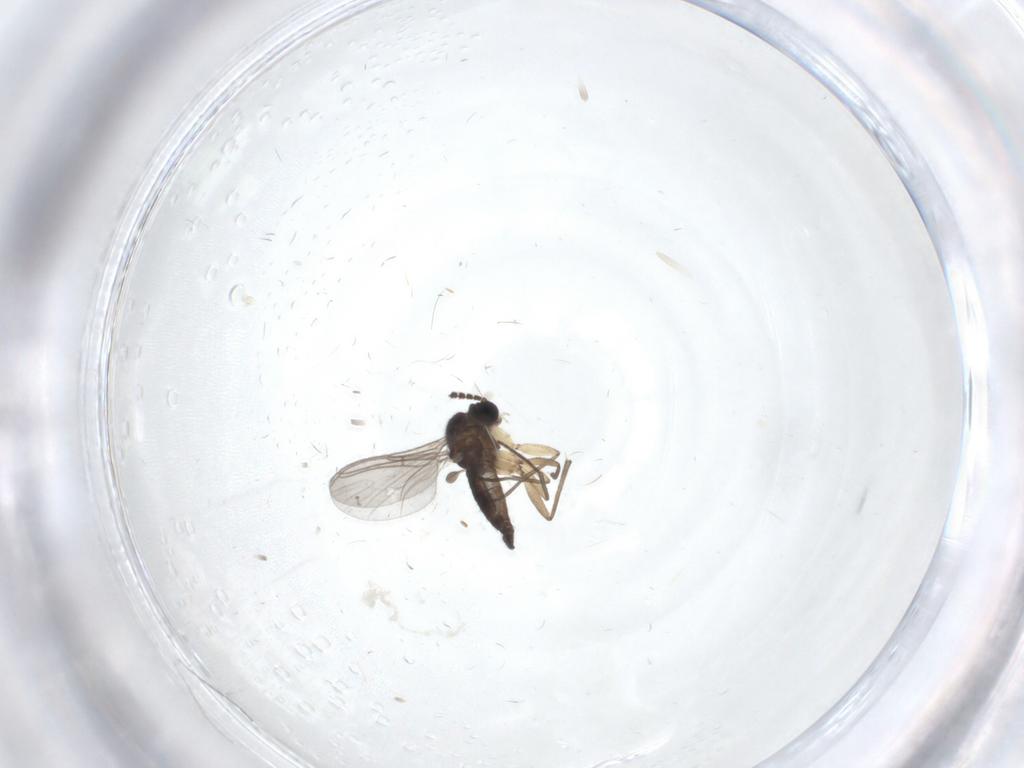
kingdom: Animalia
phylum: Arthropoda
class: Insecta
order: Diptera
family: Sciaridae
